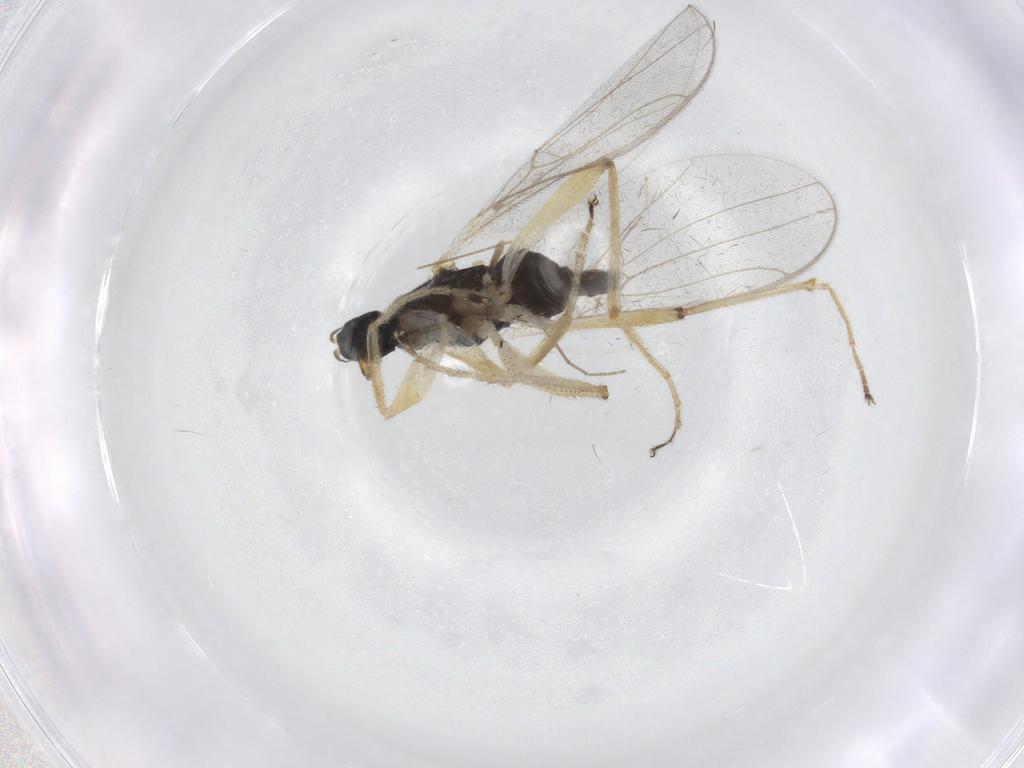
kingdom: Animalia
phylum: Arthropoda
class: Insecta
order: Diptera
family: Hybotidae
